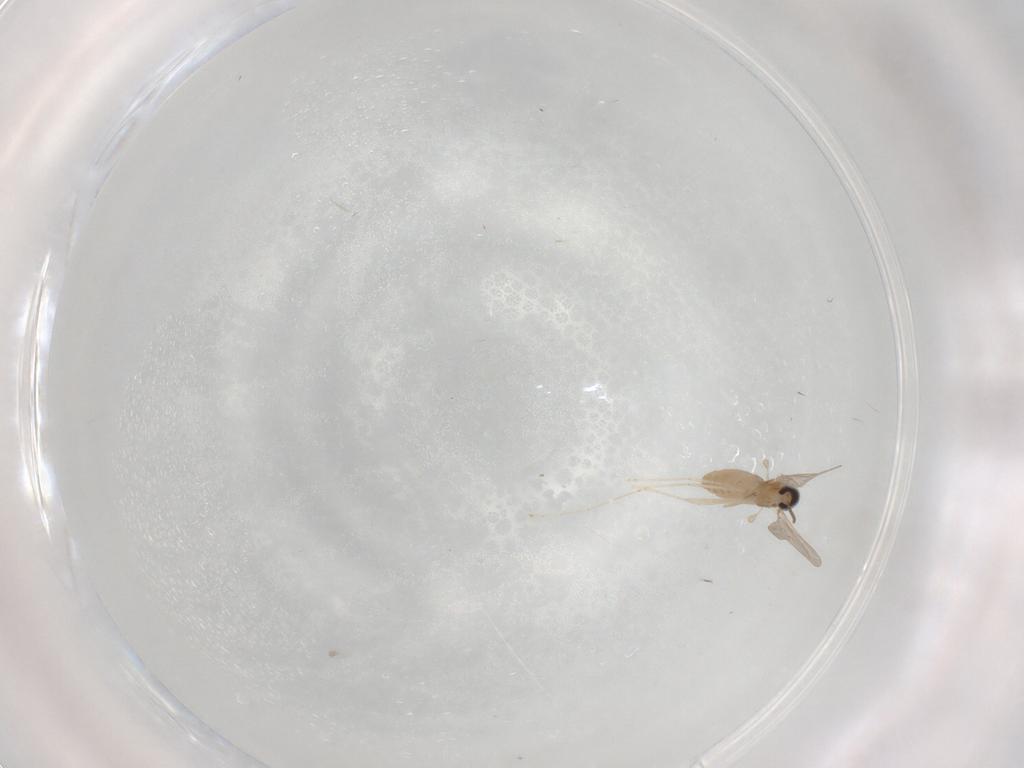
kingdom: Animalia
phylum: Arthropoda
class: Insecta
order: Diptera
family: Cecidomyiidae
